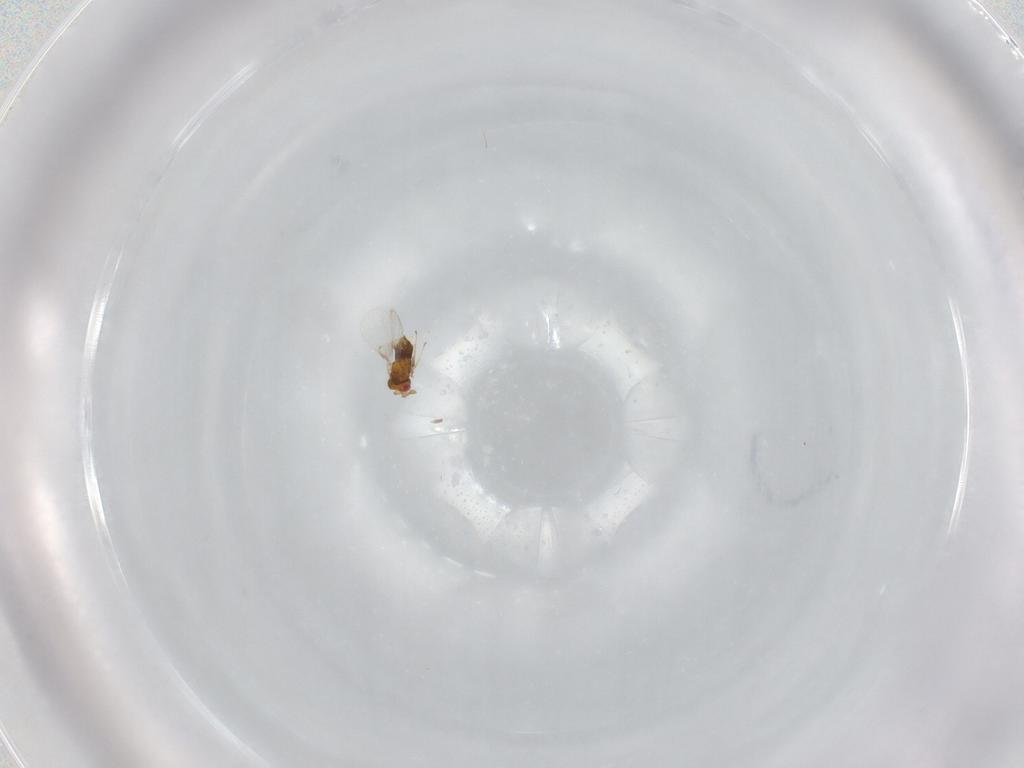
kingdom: Animalia
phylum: Arthropoda
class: Insecta
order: Hymenoptera
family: Trichogrammatidae
